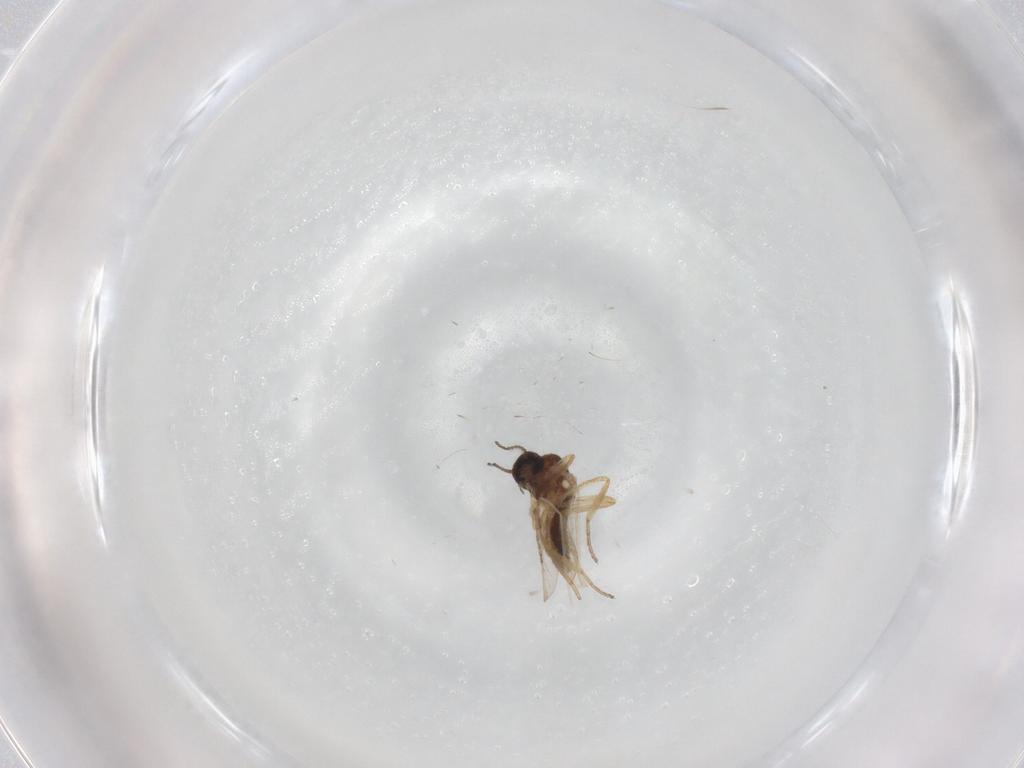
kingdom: Animalia
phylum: Arthropoda
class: Insecta
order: Diptera
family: Ceratopogonidae
